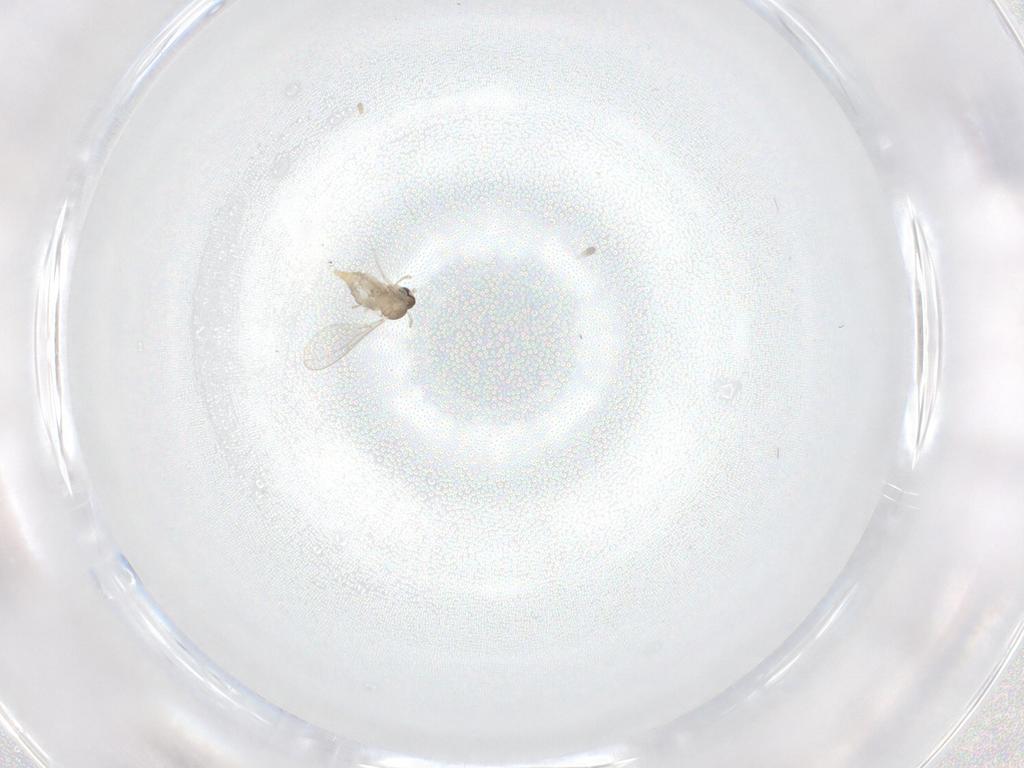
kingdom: Animalia
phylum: Arthropoda
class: Insecta
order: Diptera
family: Cecidomyiidae
